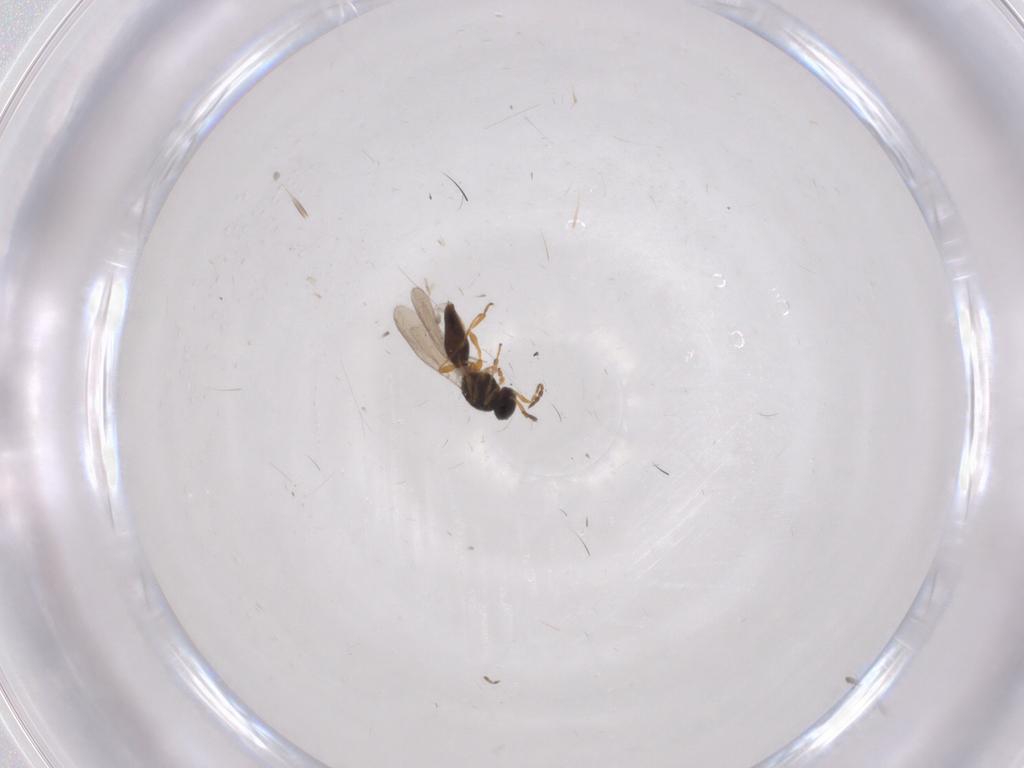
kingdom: Animalia
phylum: Arthropoda
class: Insecta
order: Hymenoptera
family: Platygastridae
